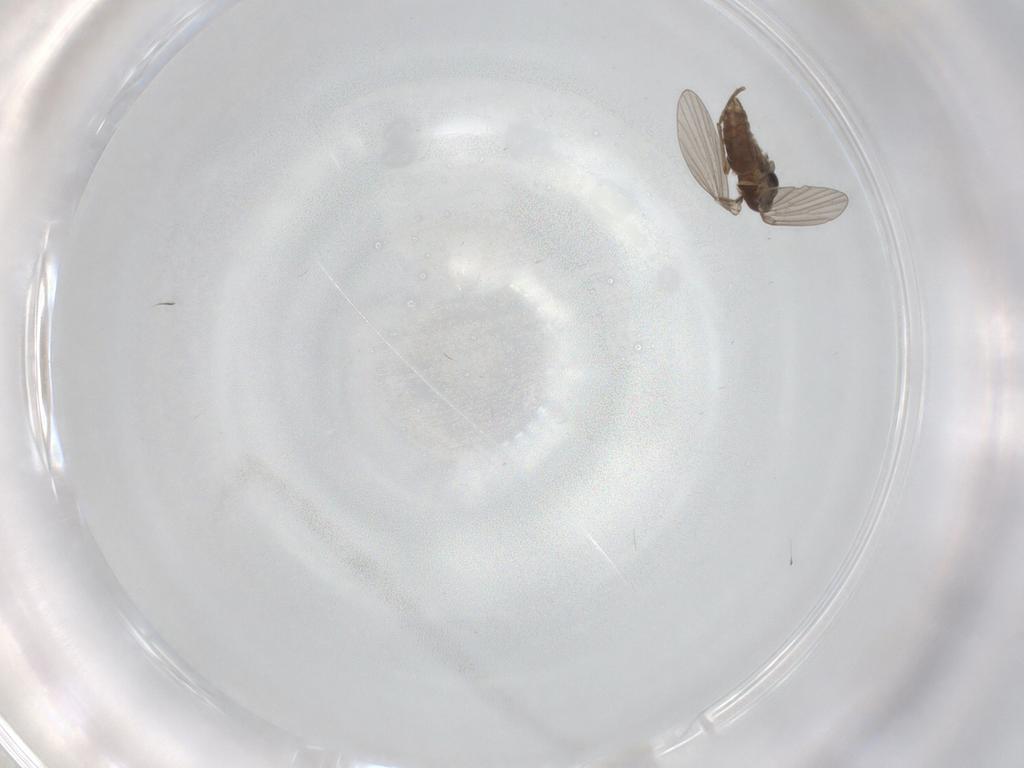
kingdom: Animalia
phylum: Arthropoda
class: Insecta
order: Diptera
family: Psychodidae
